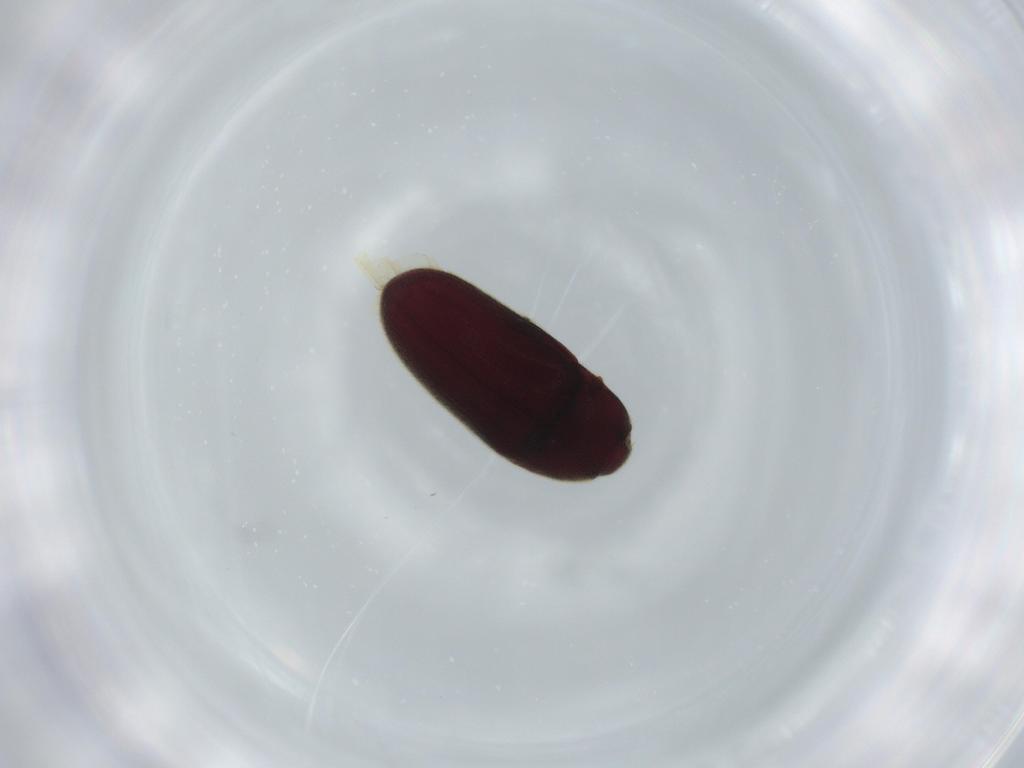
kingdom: Animalia
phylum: Arthropoda
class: Insecta
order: Coleoptera
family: Throscidae
